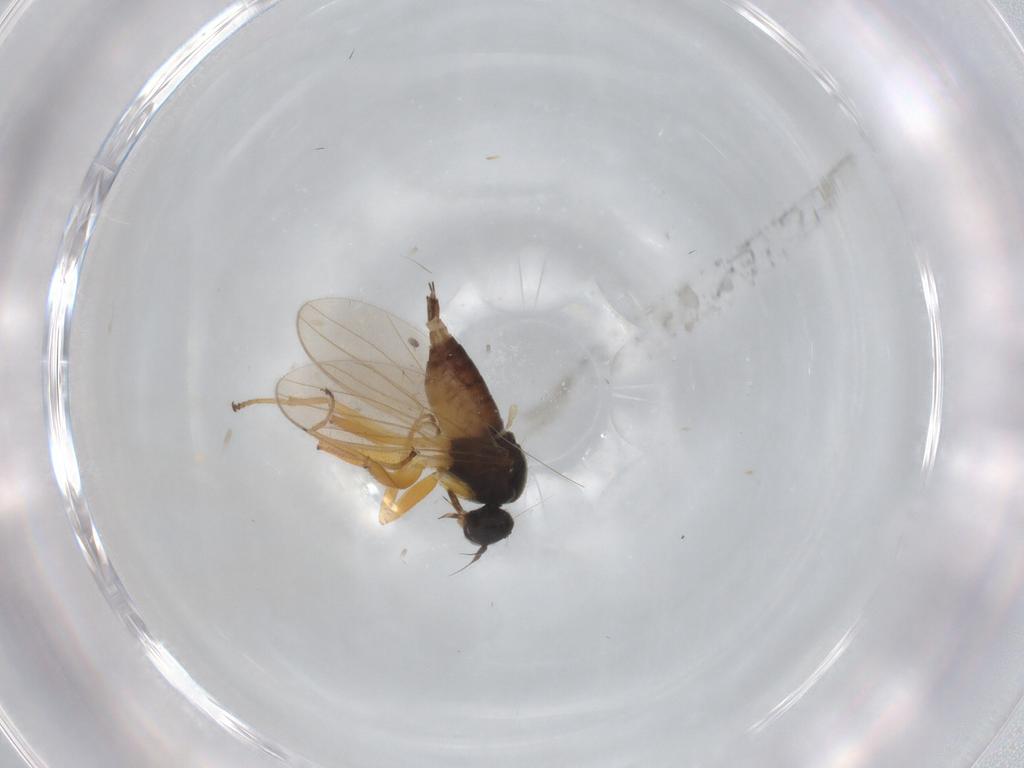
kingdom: Animalia
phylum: Arthropoda
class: Insecta
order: Diptera
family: Hybotidae
